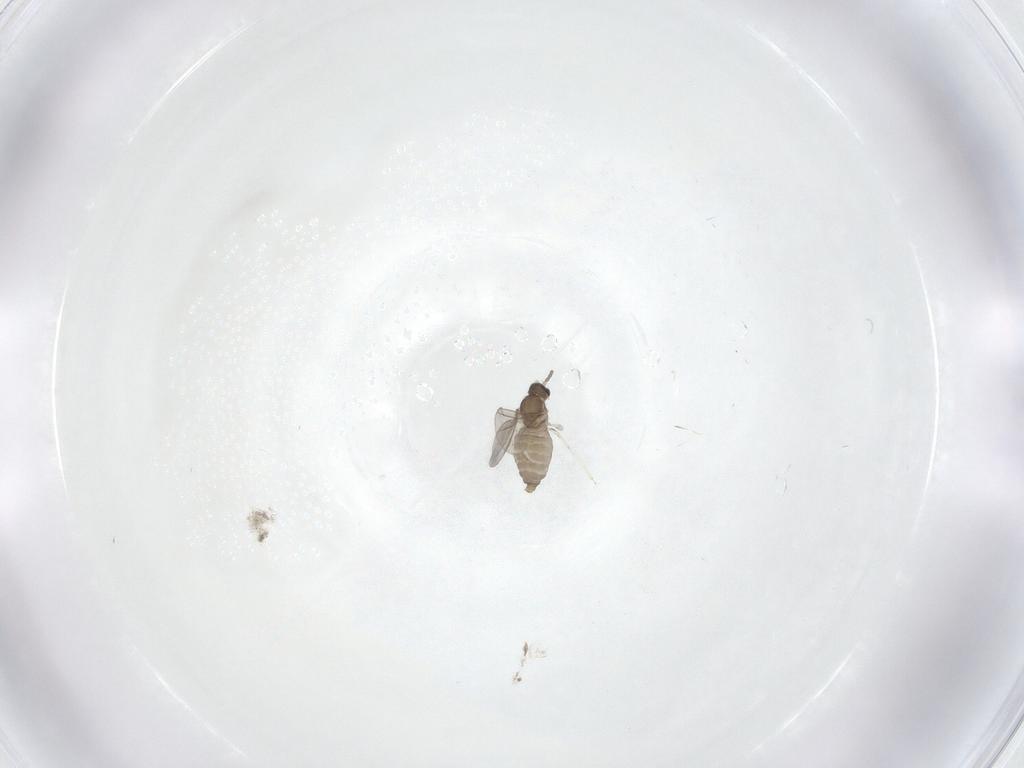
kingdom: Animalia
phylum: Arthropoda
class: Insecta
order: Diptera
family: Cecidomyiidae
